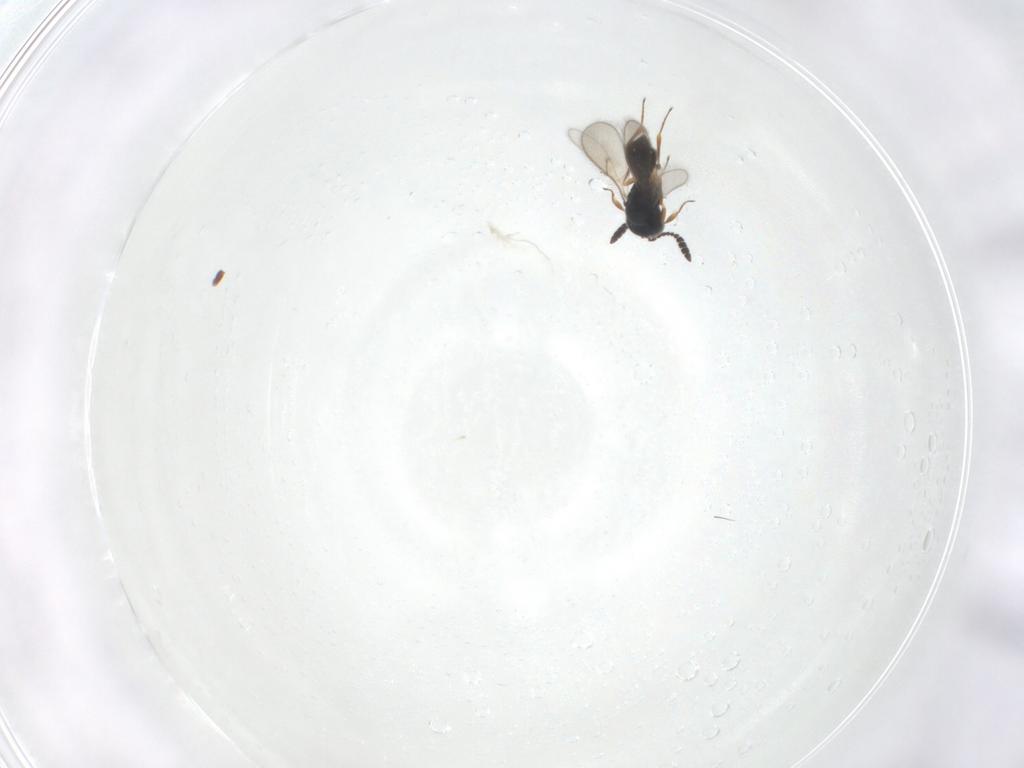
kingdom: Animalia
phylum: Arthropoda
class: Insecta
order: Hymenoptera
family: Scelionidae
